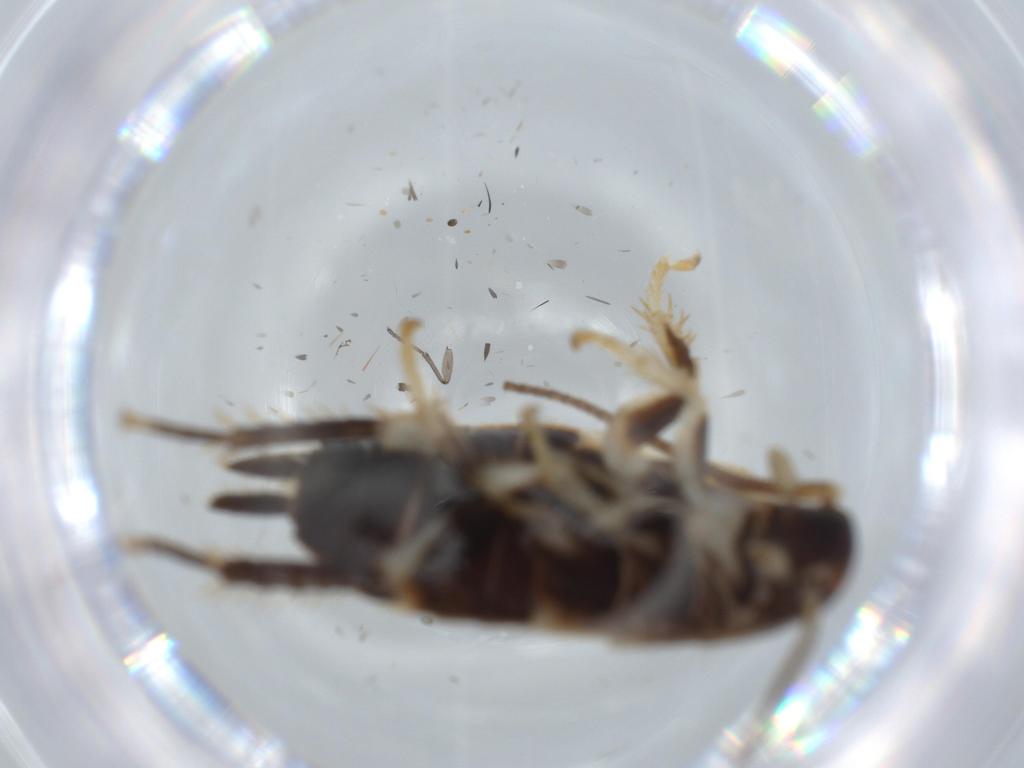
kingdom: Animalia
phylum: Arthropoda
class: Insecta
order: Blattodea
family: Ectobiidae
